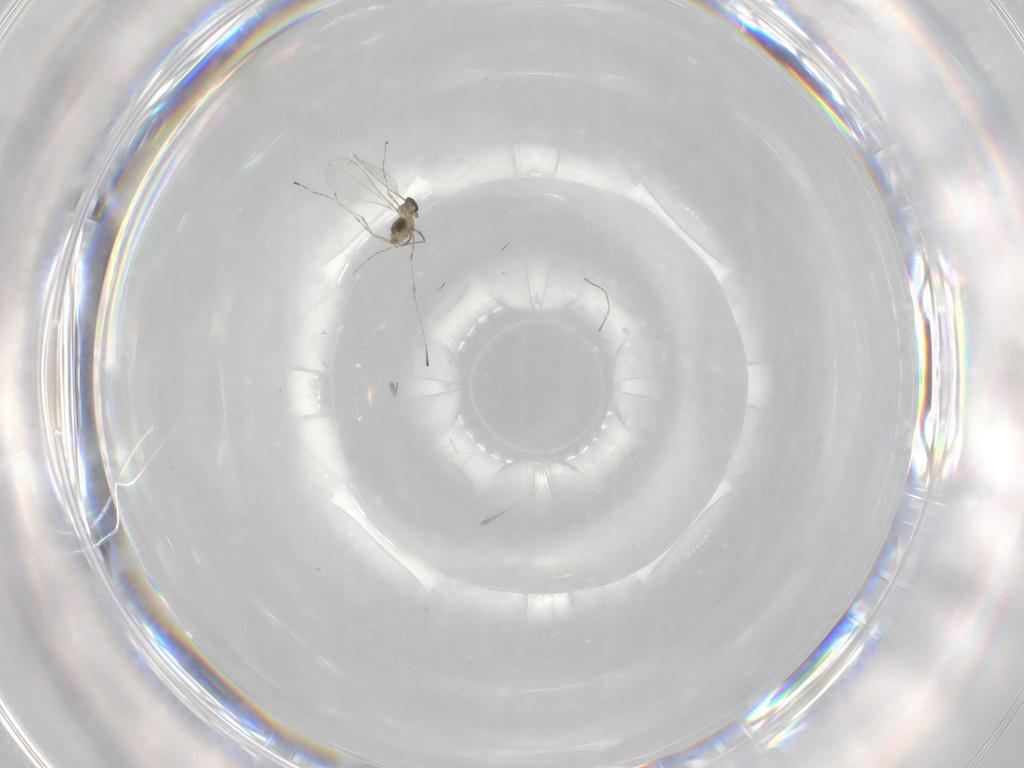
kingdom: Animalia
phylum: Arthropoda
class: Insecta
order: Diptera
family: Cecidomyiidae
